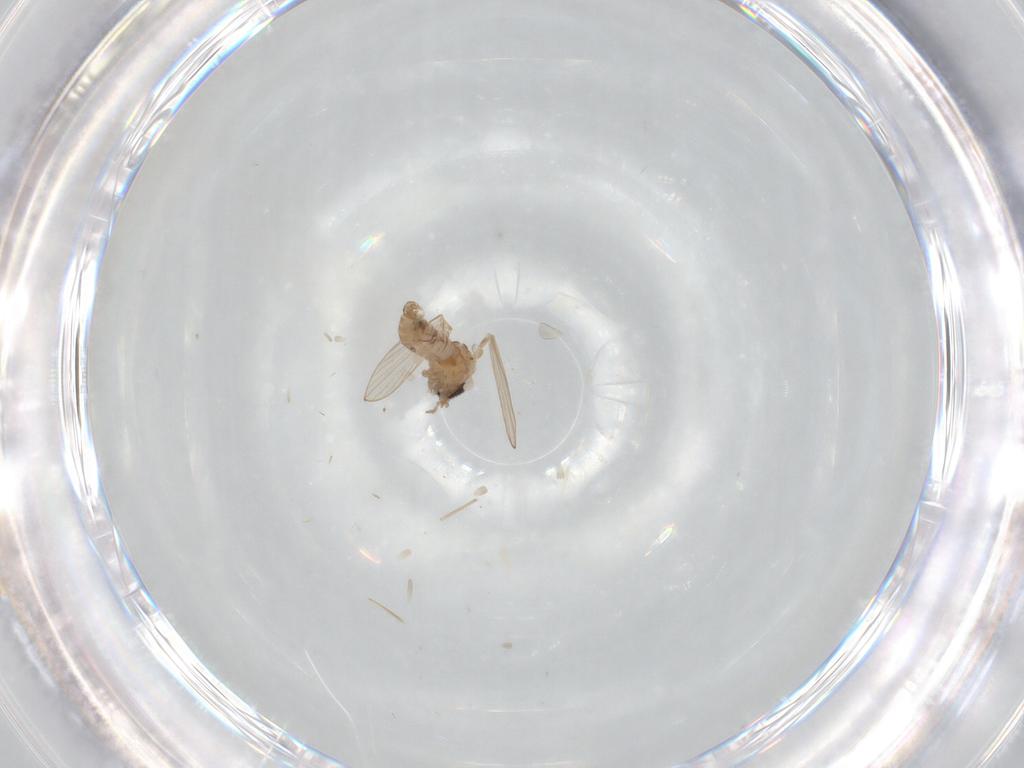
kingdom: Animalia
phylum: Arthropoda
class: Insecta
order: Diptera
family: Psychodidae
